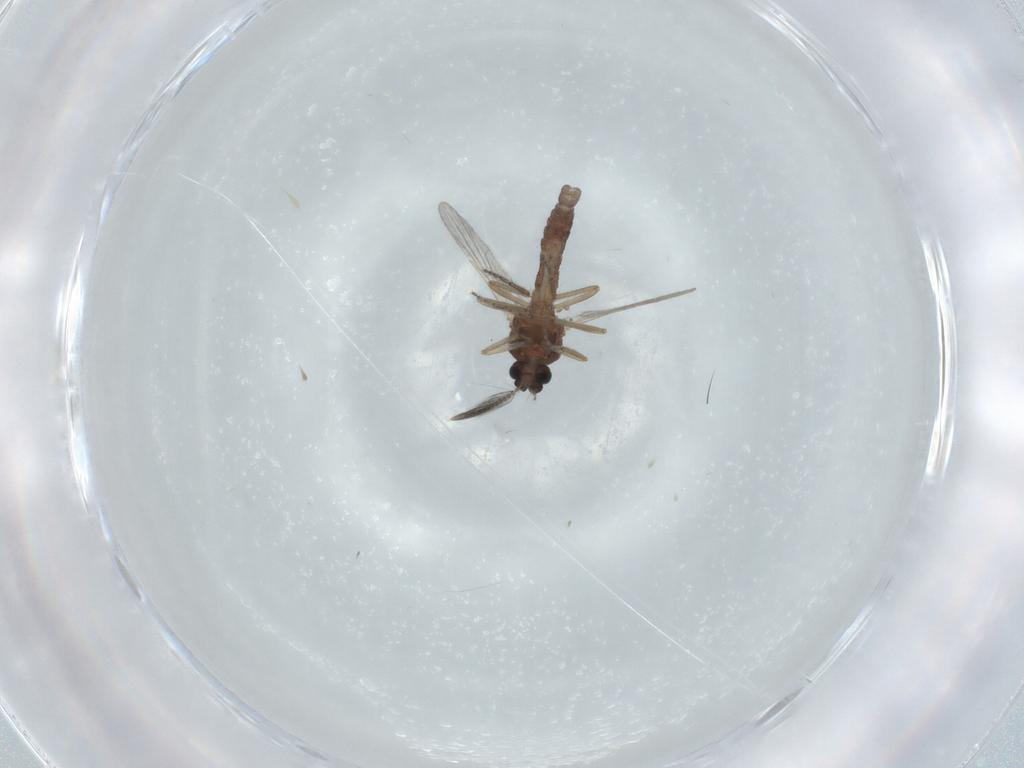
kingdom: Animalia
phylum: Arthropoda
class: Insecta
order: Diptera
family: Ceratopogonidae
